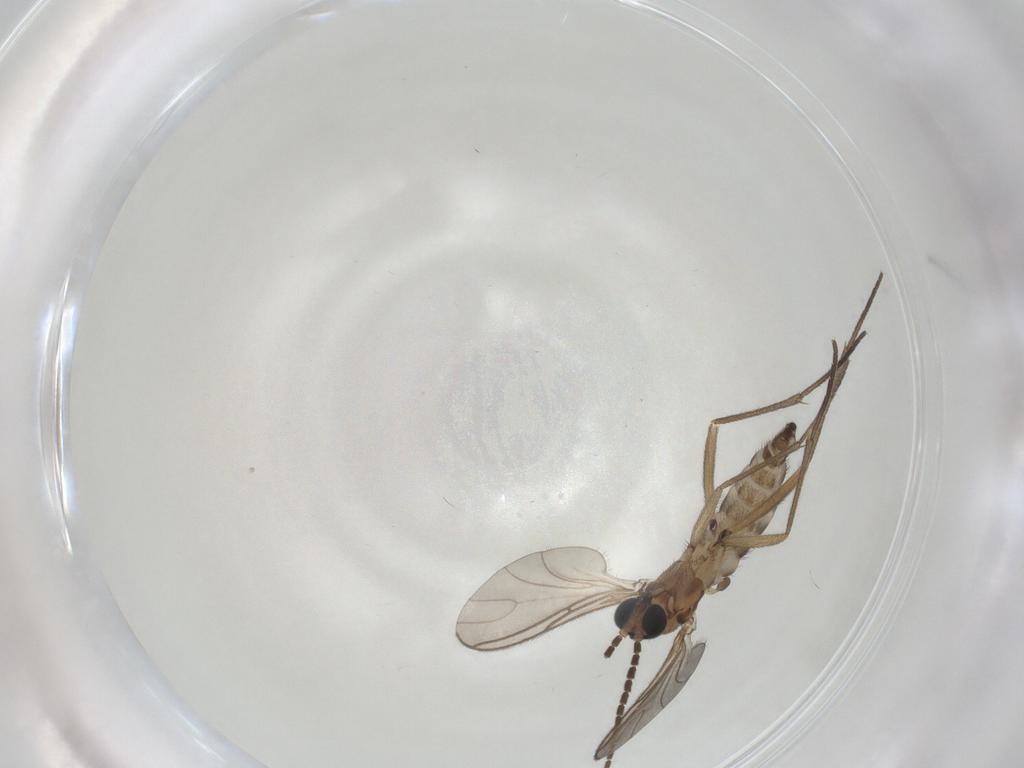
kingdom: Animalia
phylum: Arthropoda
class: Insecta
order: Diptera
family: Sciaridae
